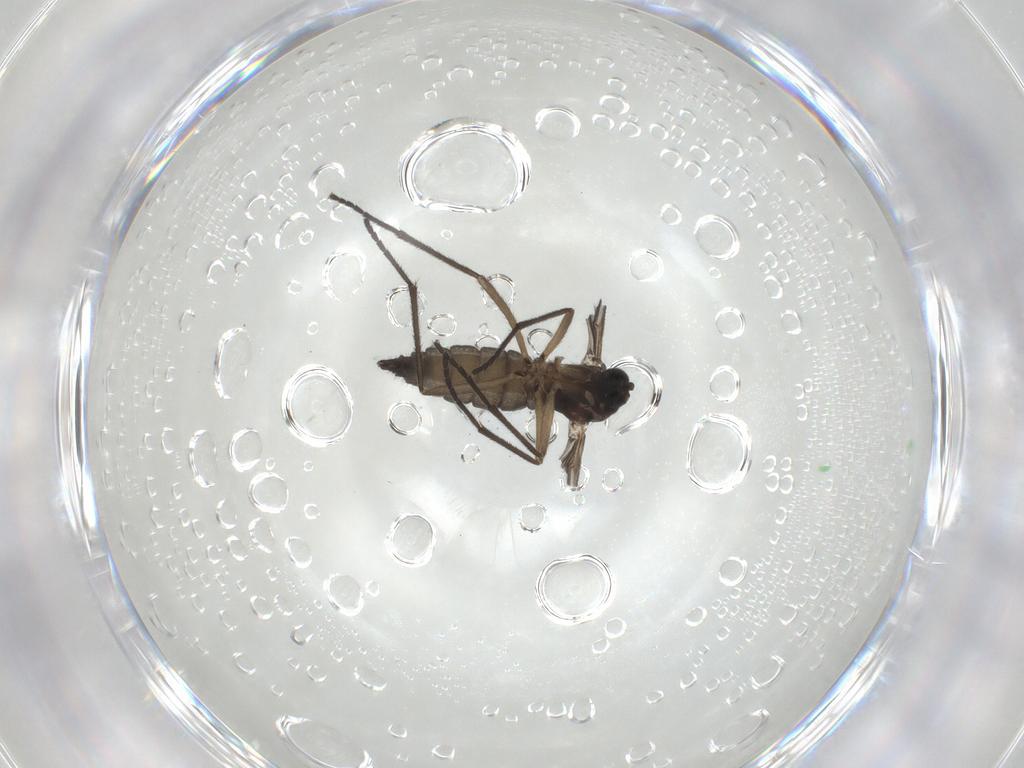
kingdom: Animalia
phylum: Arthropoda
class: Insecta
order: Diptera
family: Sciaridae
